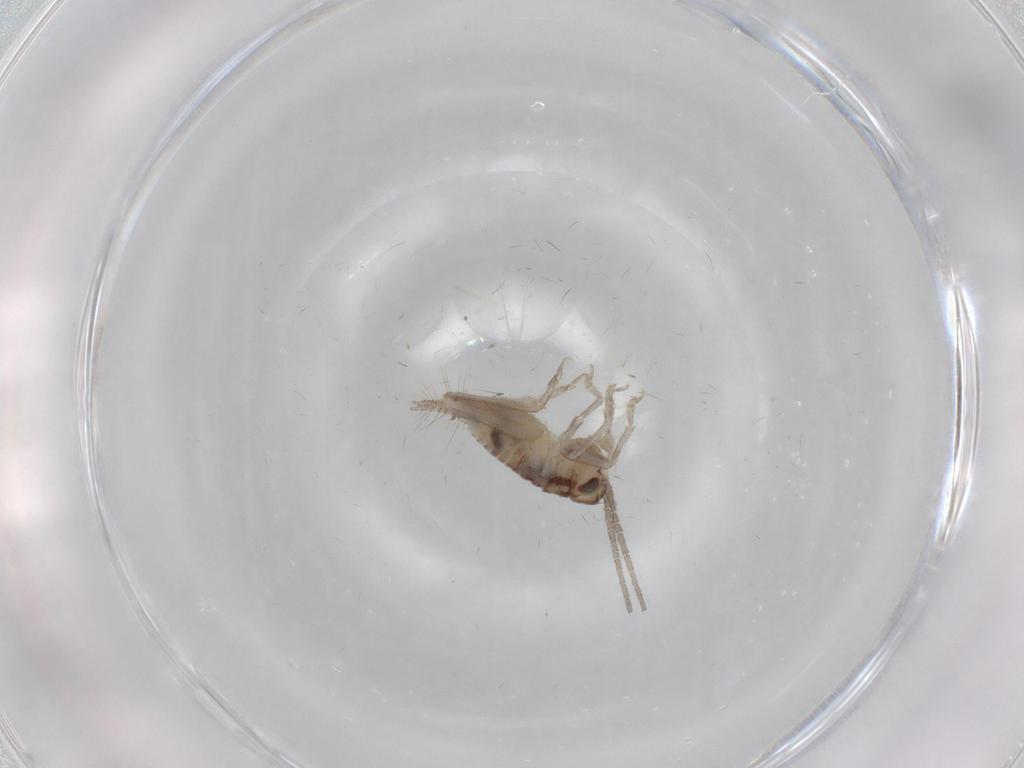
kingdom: Animalia
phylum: Arthropoda
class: Insecta
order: Orthoptera
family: Trigonidiidae
